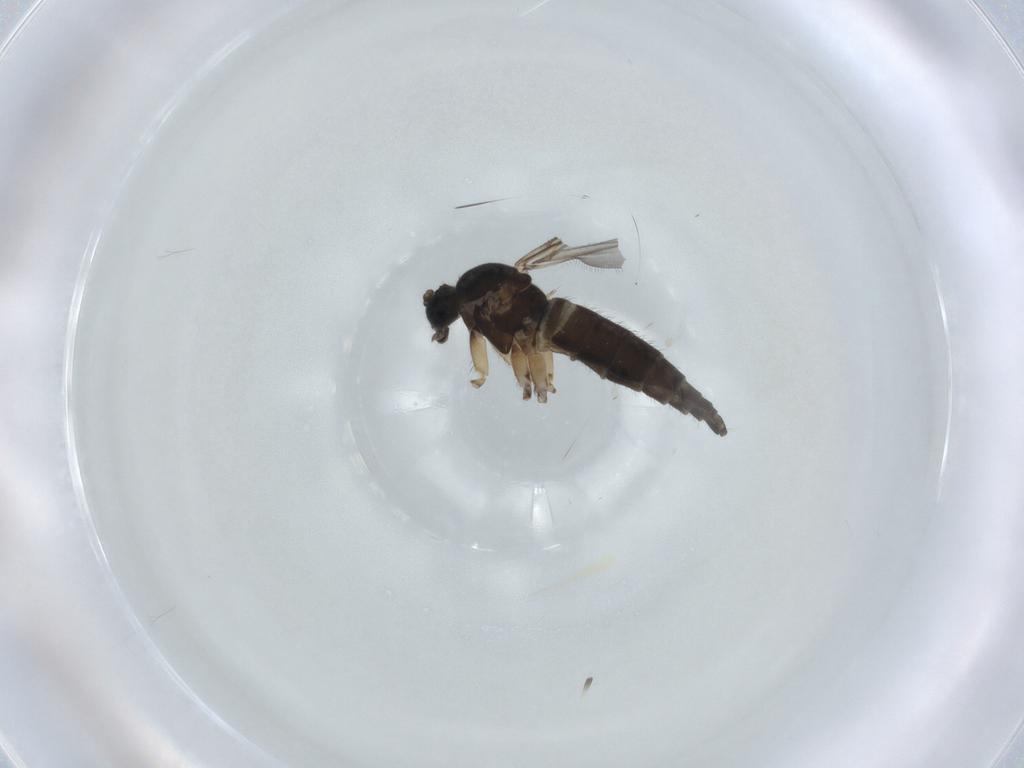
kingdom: Animalia
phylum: Arthropoda
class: Insecta
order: Diptera
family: Sciaridae
